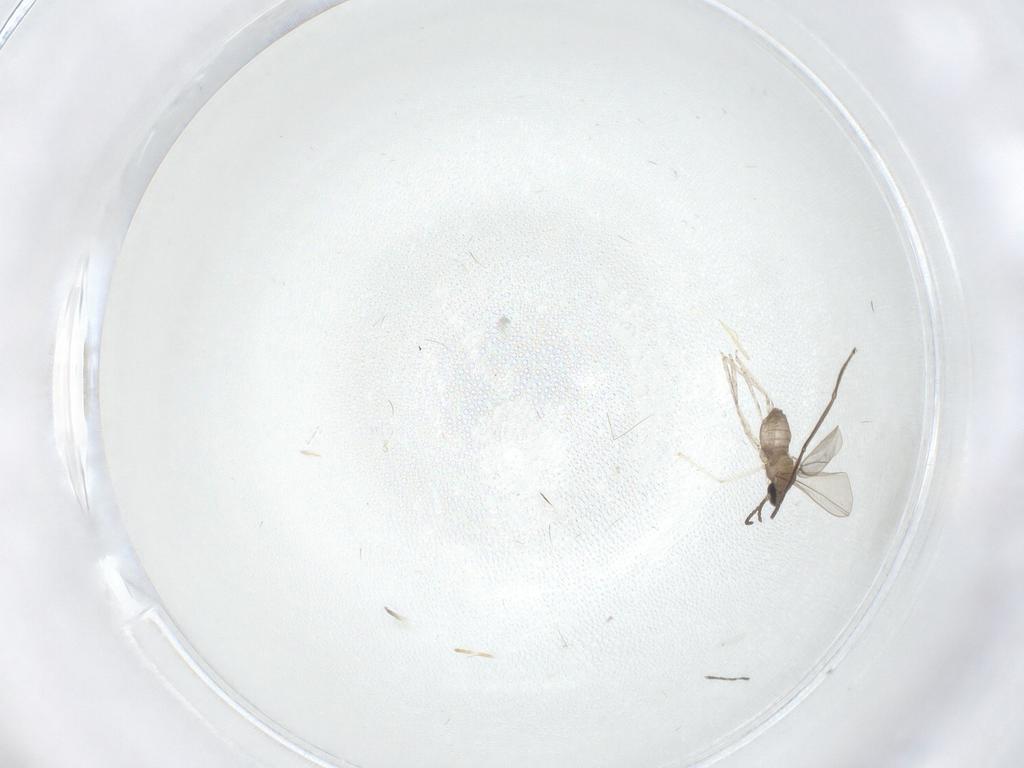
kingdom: Animalia
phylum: Arthropoda
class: Insecta
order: Diptera
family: Cecidomyiidae
